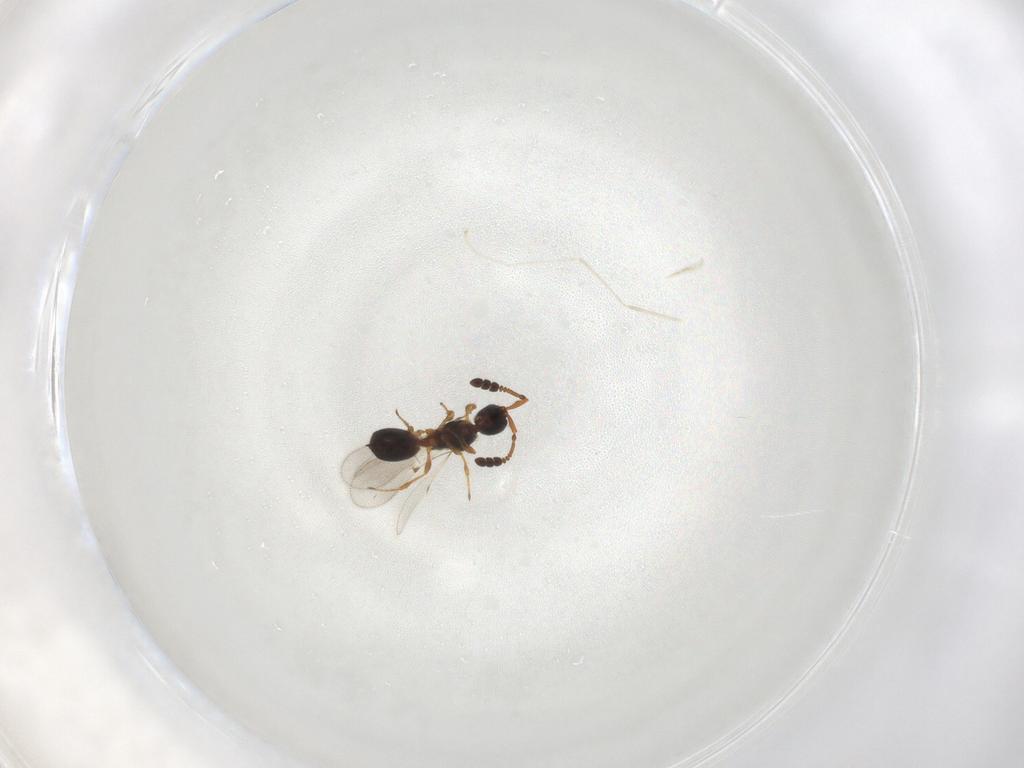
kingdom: Animalia
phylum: Arthropoda
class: Insecta
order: Hymenoptera
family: Diapriidae
